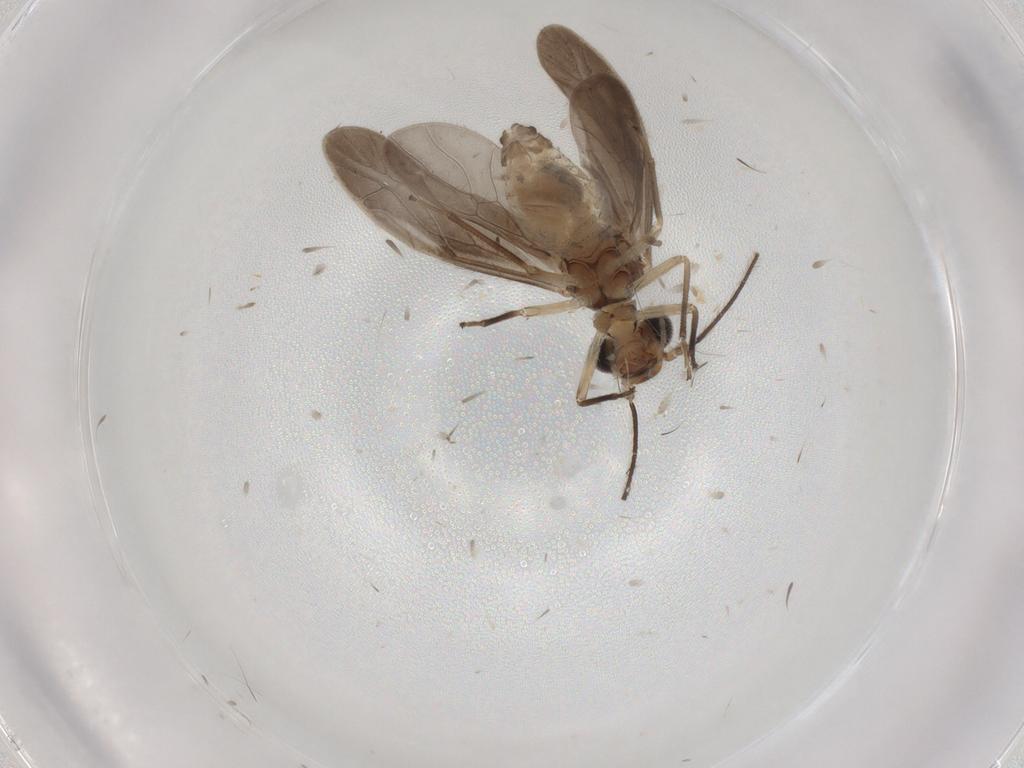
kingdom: Animalia
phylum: Arthropoda
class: Insecta
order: Psocodea
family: Caeciliusidae
